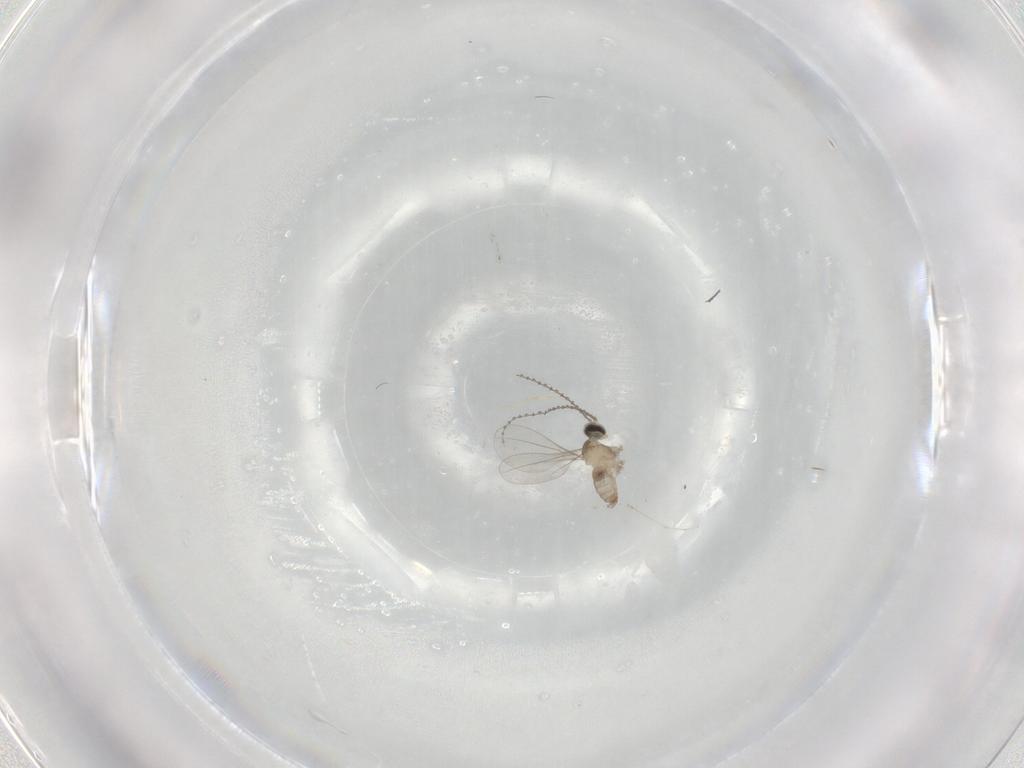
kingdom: Animalia
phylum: Arthropoda
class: Insecta
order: Diptera
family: Cecidomyiidae
